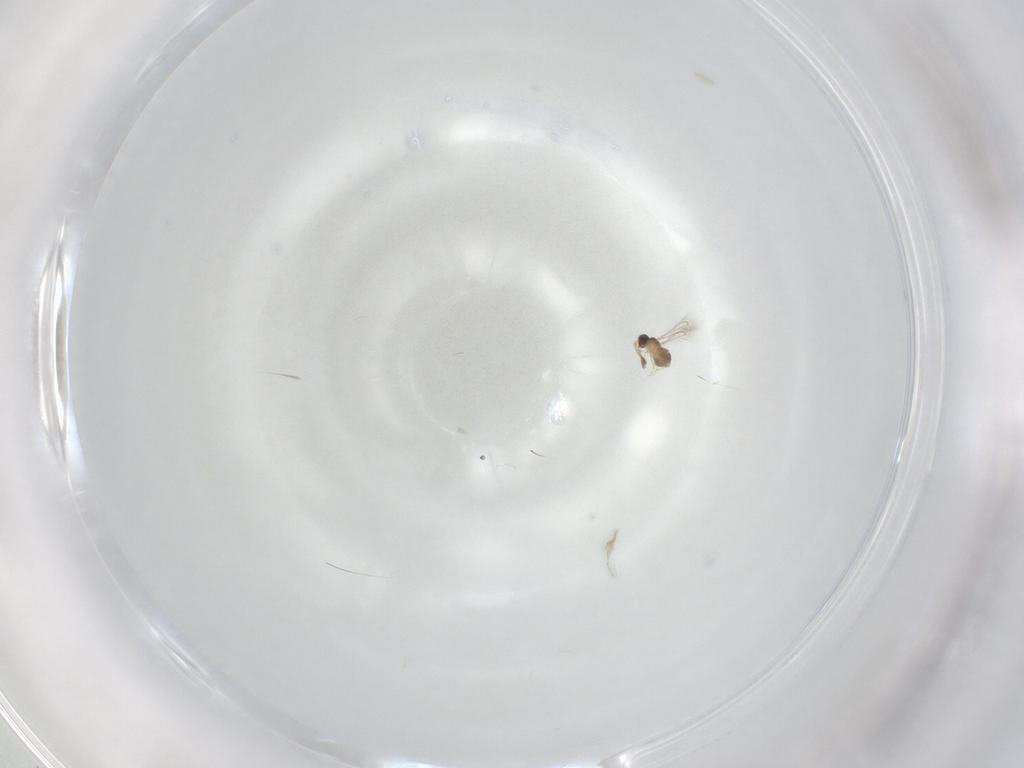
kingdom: Animalia
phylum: Arthropoda
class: Insecta
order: Hymenoptera
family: Mymaridae
